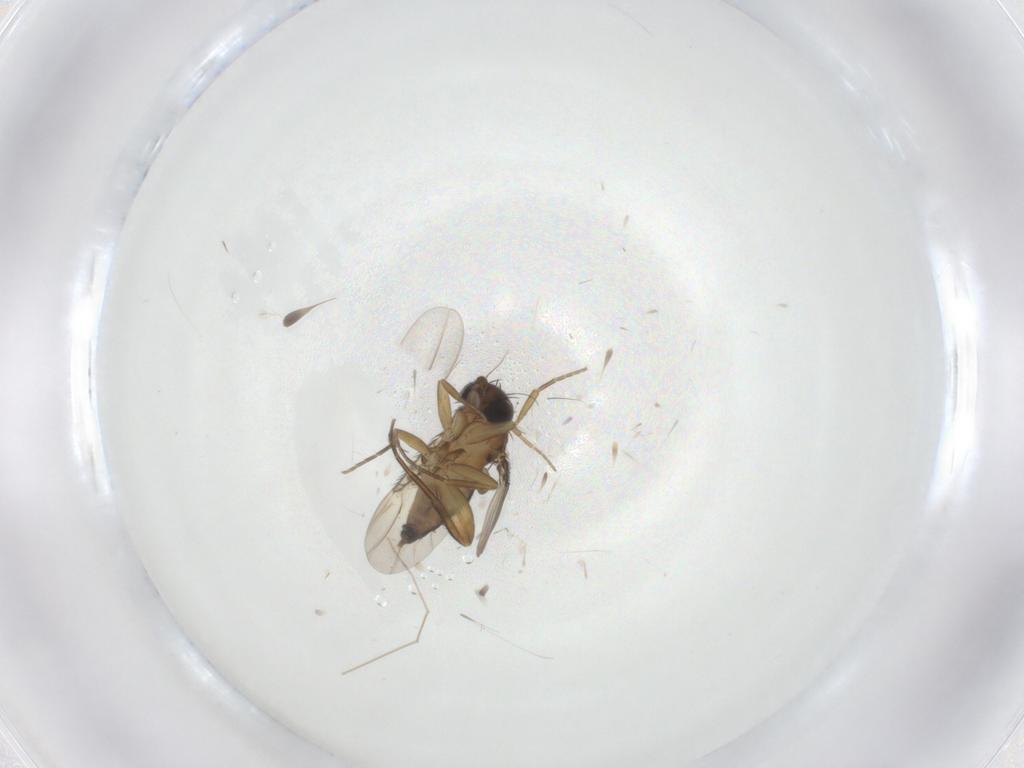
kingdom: Animalia
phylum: Arthropoda
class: Insecta
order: Diptera
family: Phoridae
